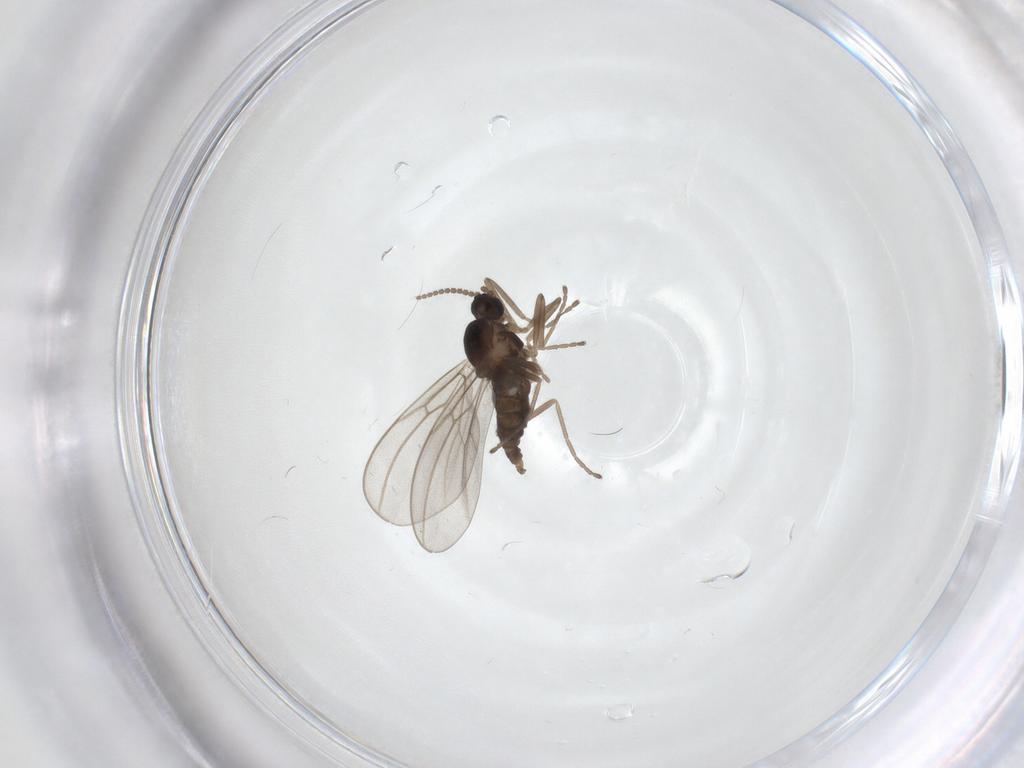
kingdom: Animalia
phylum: Arthropoda
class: Insecta
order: Diptera
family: Cecidomyiidae
